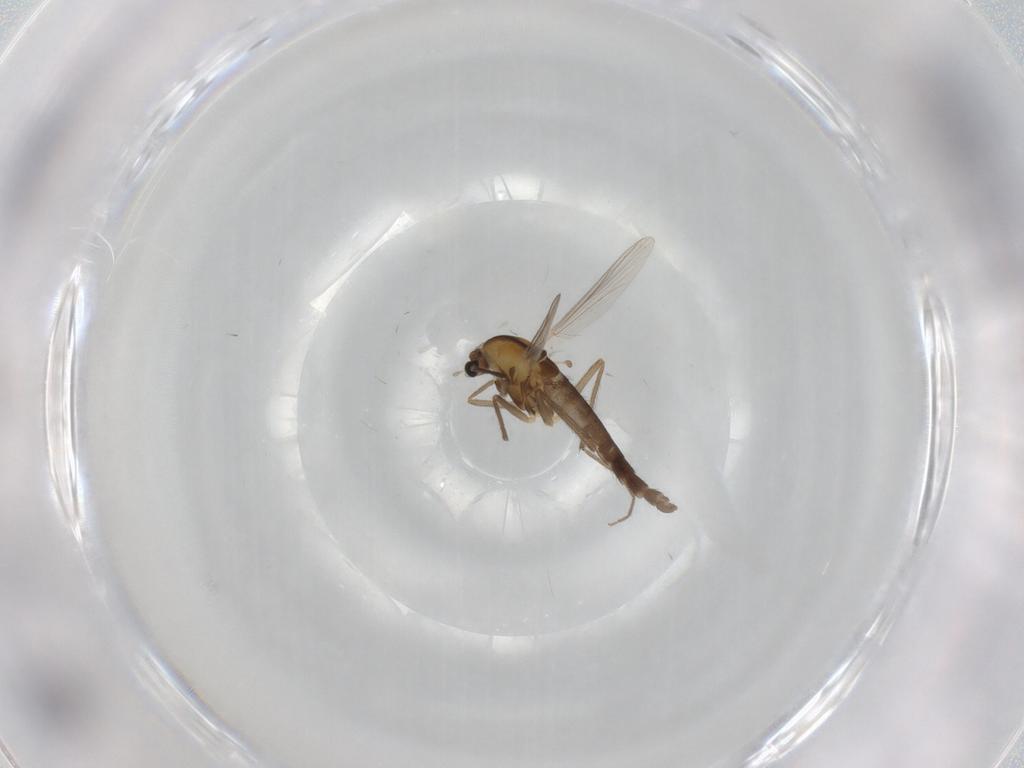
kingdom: Animalia
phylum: Arthropoda
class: Insecta
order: Diptera
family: Chironomidae
